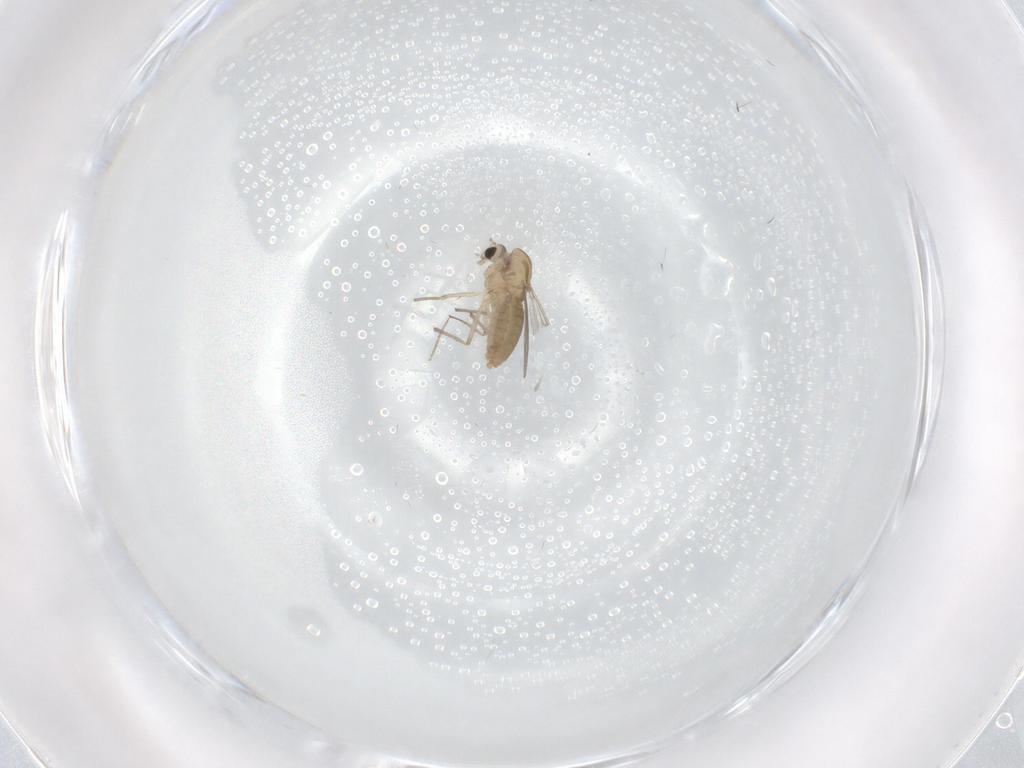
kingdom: Animalia
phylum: Arthropoda
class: Insecta
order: Diptera
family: Chironomidae
